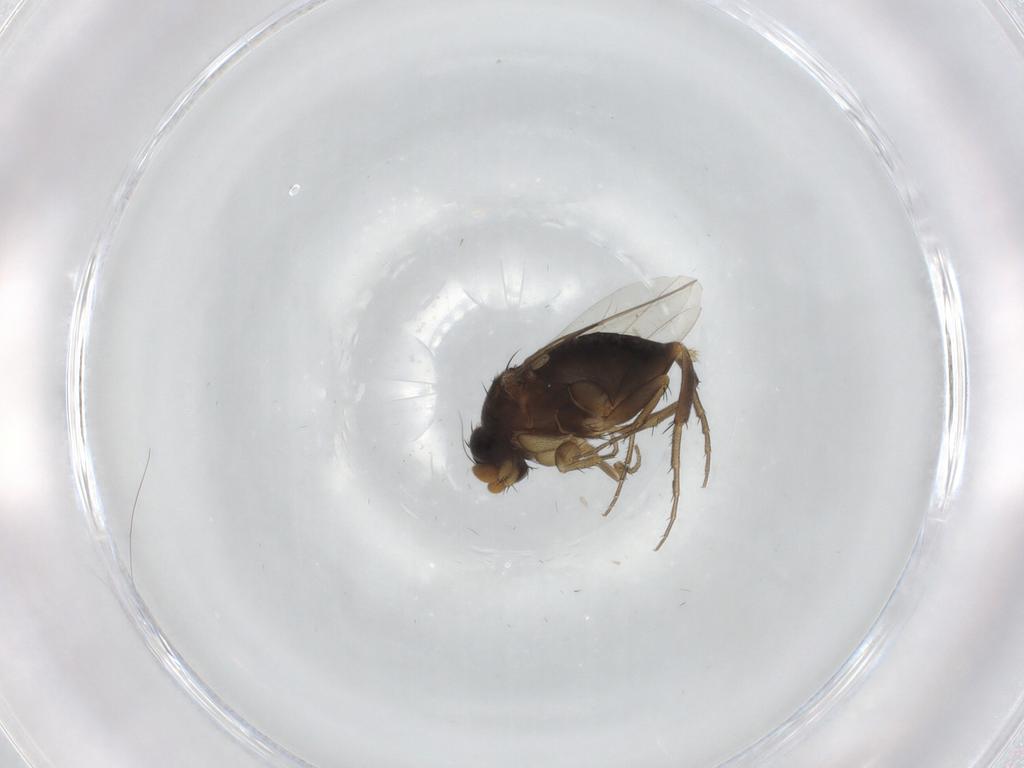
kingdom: Animalia
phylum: Arthropoda
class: Insecta
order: Diptera
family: Phoridae
